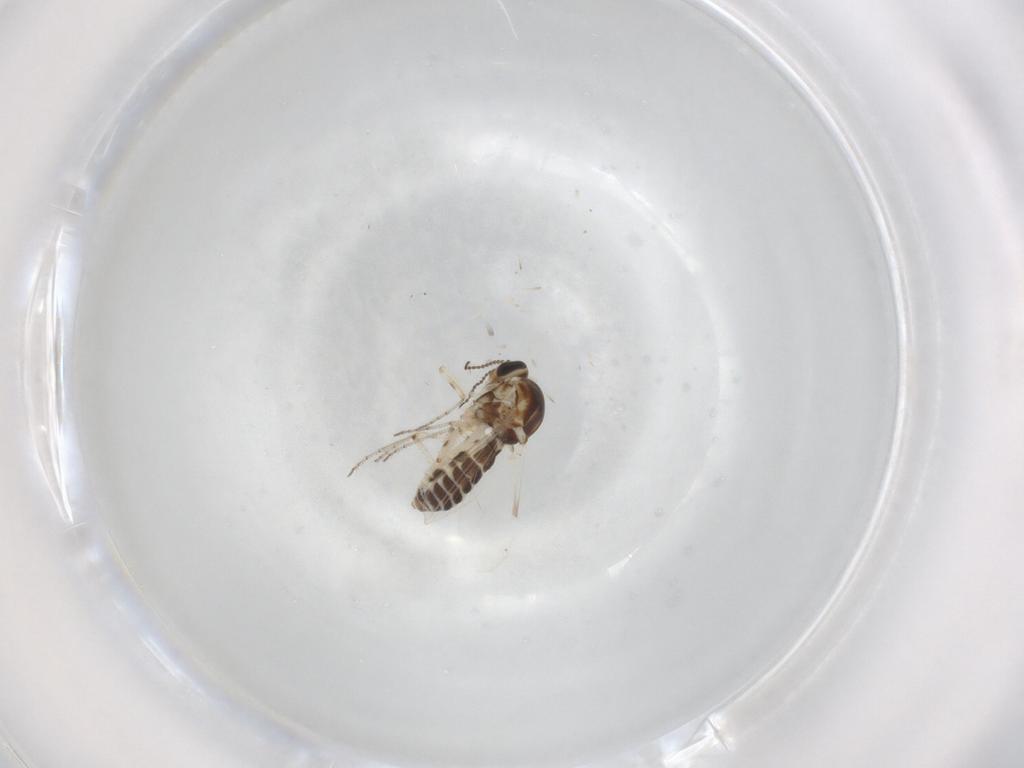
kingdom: Animalia
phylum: Arthropoda
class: Insecta
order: Diptera
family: Ceratopogonidae
